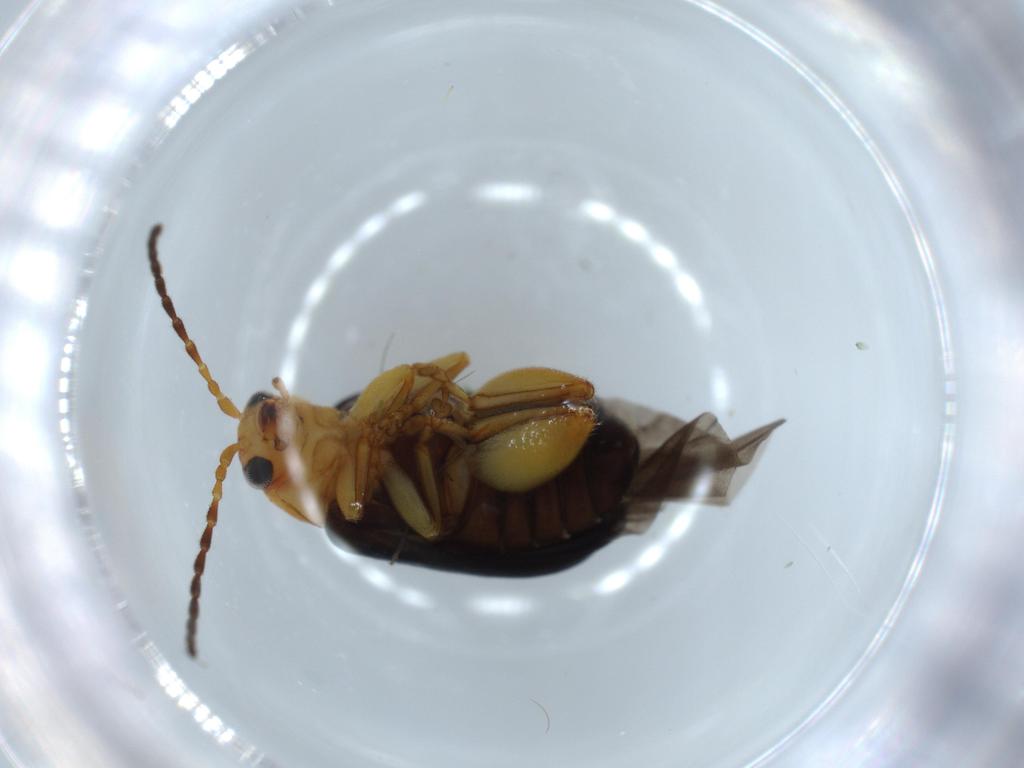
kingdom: Animalia
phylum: Arthropoda
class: Insecta
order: Coleoptera
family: Chrysomelidae
